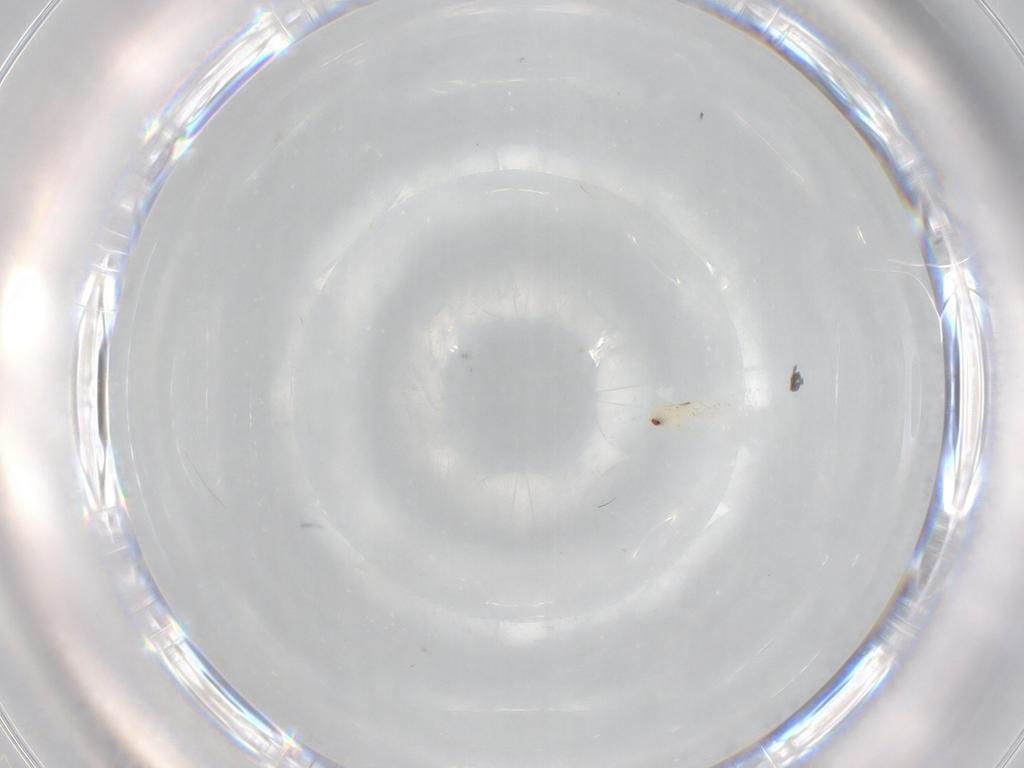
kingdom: Animalia
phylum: Arthropoda
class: Insecta
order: Hemiptera
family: Aleyrodidae
